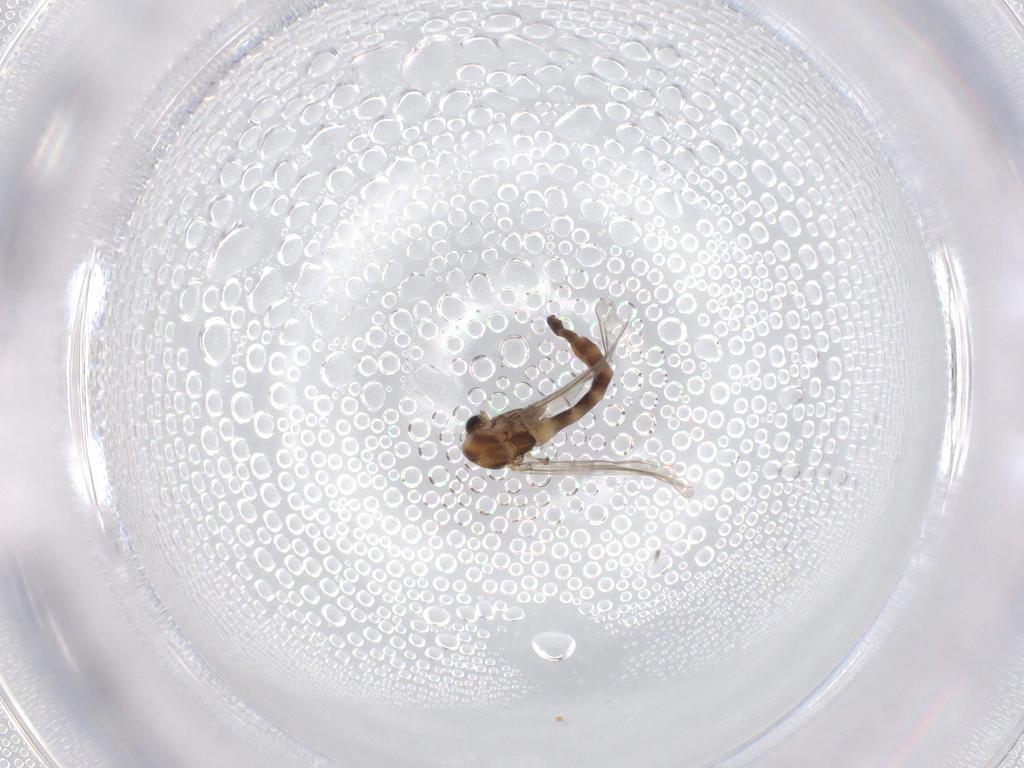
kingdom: Animalia
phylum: Arthropoda
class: Insecta
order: Diptera
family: Chironomidae
